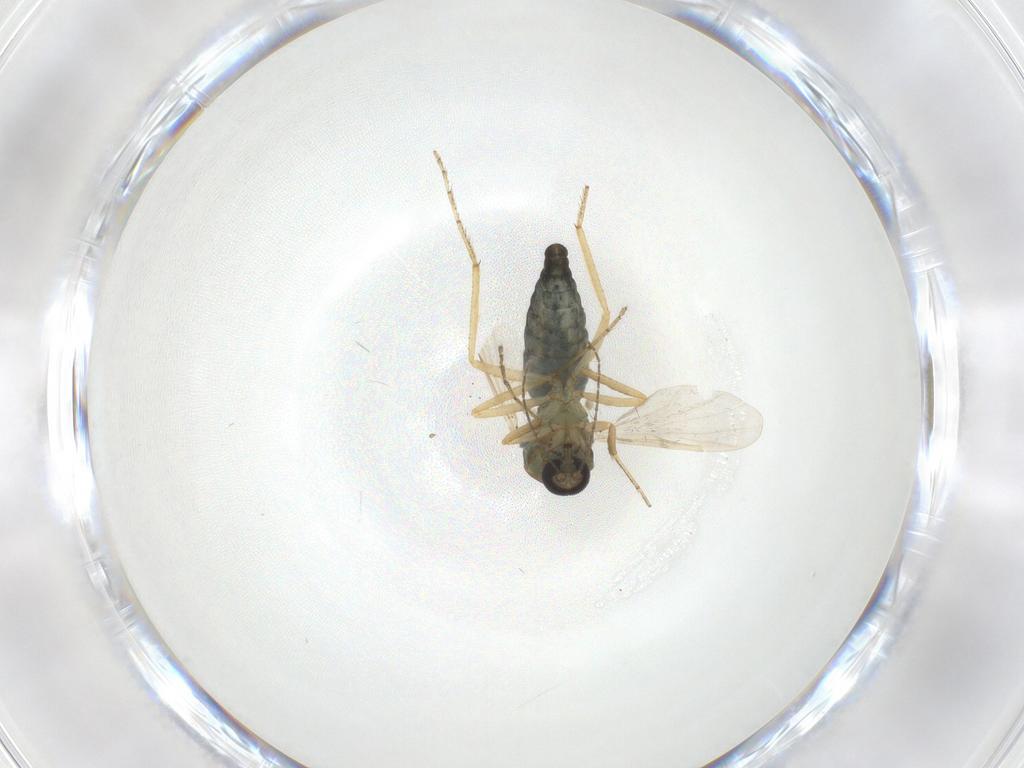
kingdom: Animalia
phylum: Arthropoda
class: Insecta
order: Diptera
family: Ceratopogonidae
